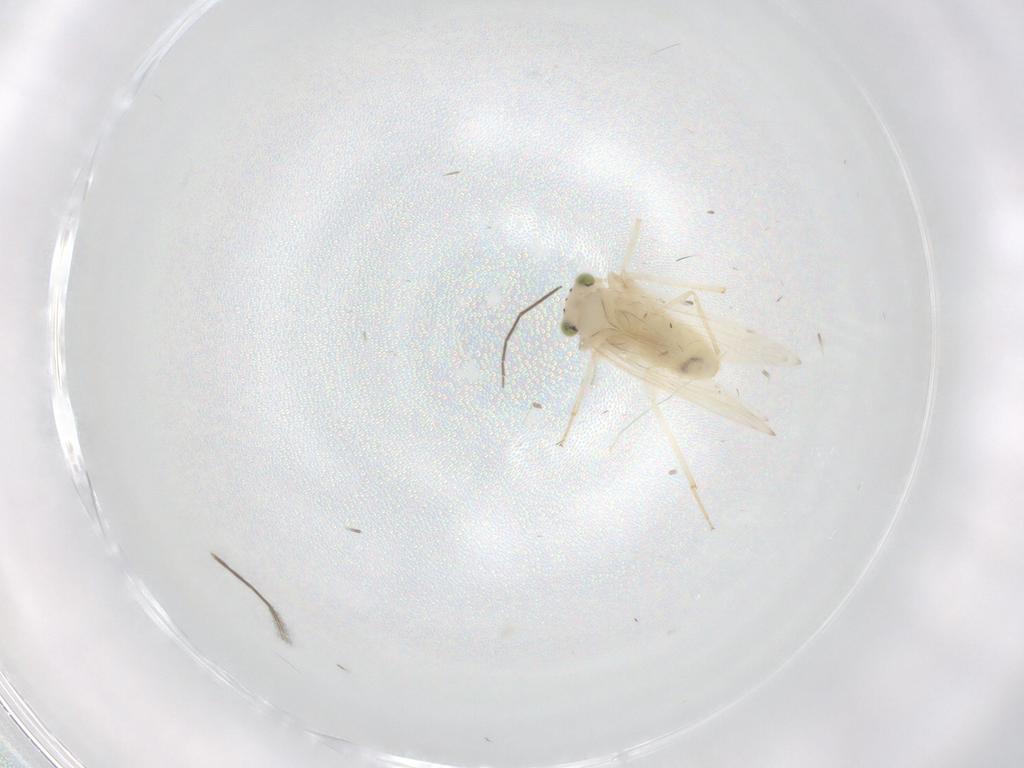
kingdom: Animalia
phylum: Arthropoda
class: Insecta
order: Psocodea
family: Lepidopsocidae
